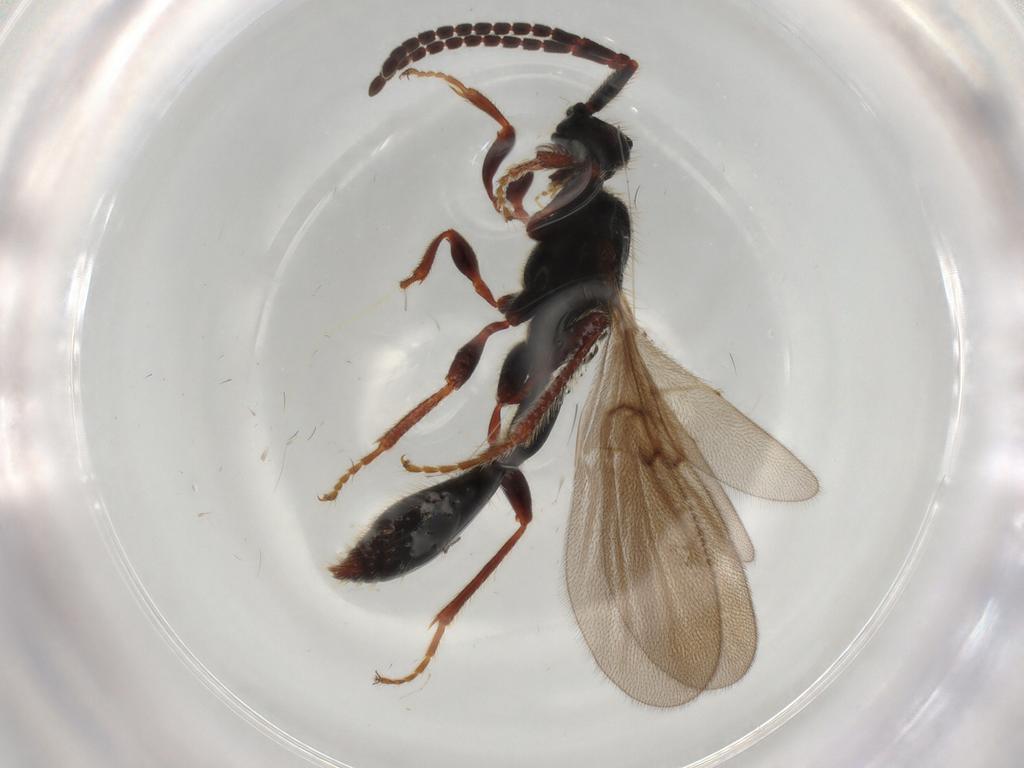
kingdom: Animalia
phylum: Arthropoda
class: Insecta
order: Hymenoptera
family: Diapriidae
